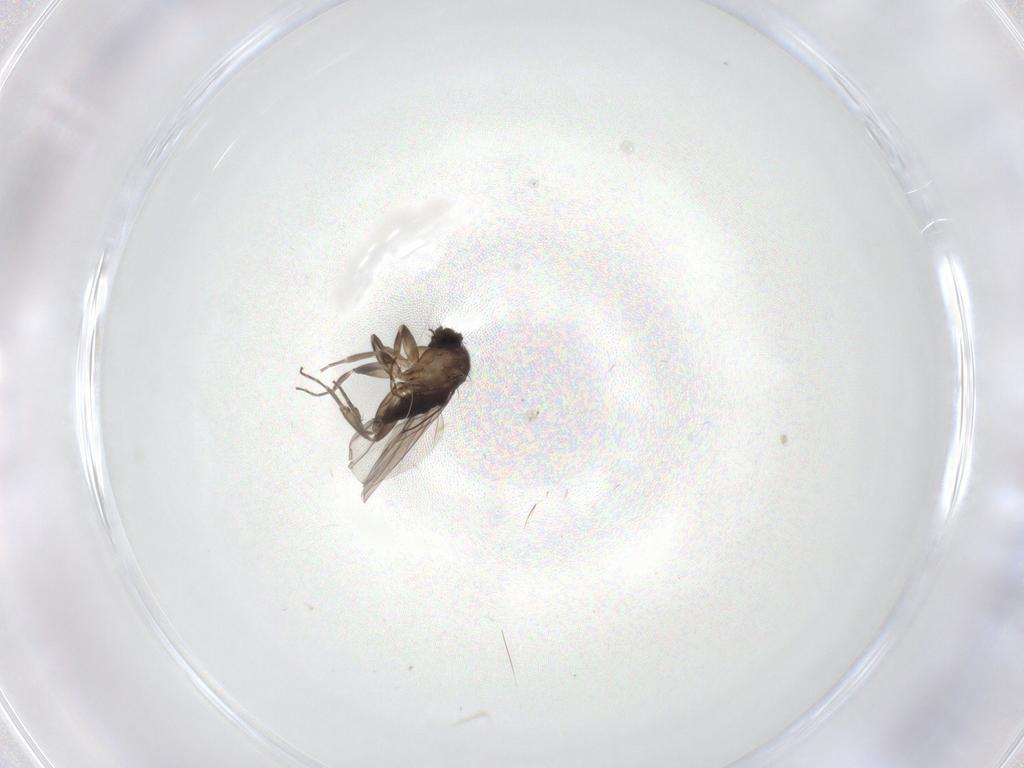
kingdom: Animalia
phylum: Arthropoda
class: Insecta
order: Diptera
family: Phoridae
